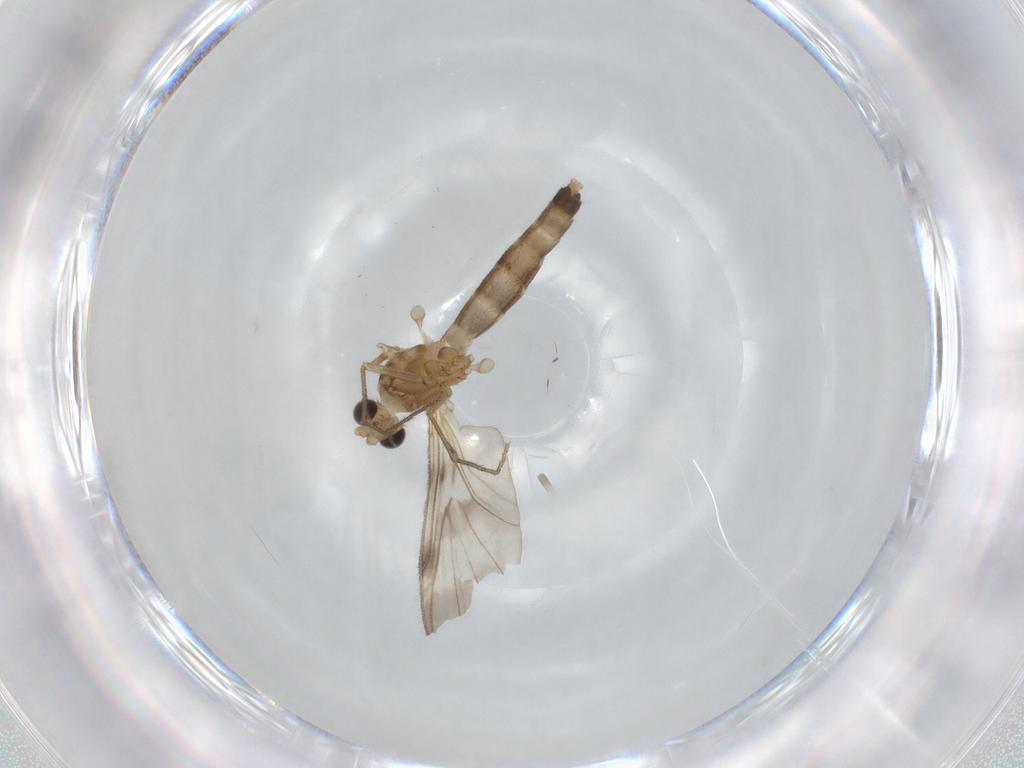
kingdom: Animalia
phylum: Arthropoda
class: Insecta
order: Diptera
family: Keroplatidae
